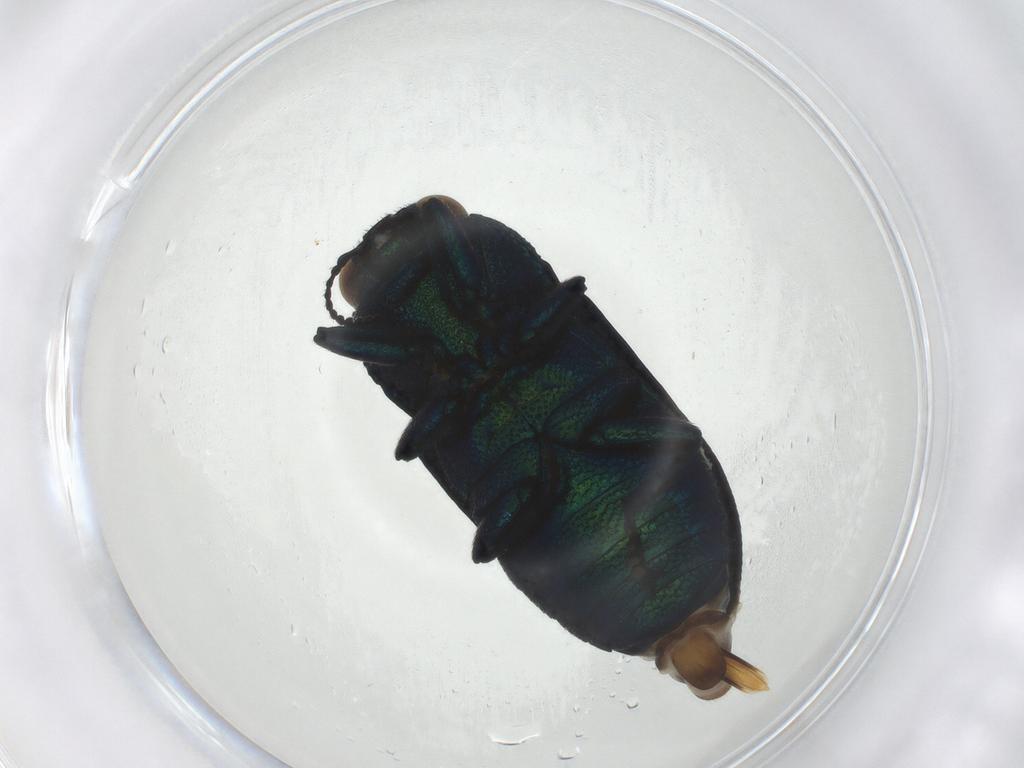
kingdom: Animalia
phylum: Arthropoda
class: Insecta
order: Coleoptera
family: Buprestidae
